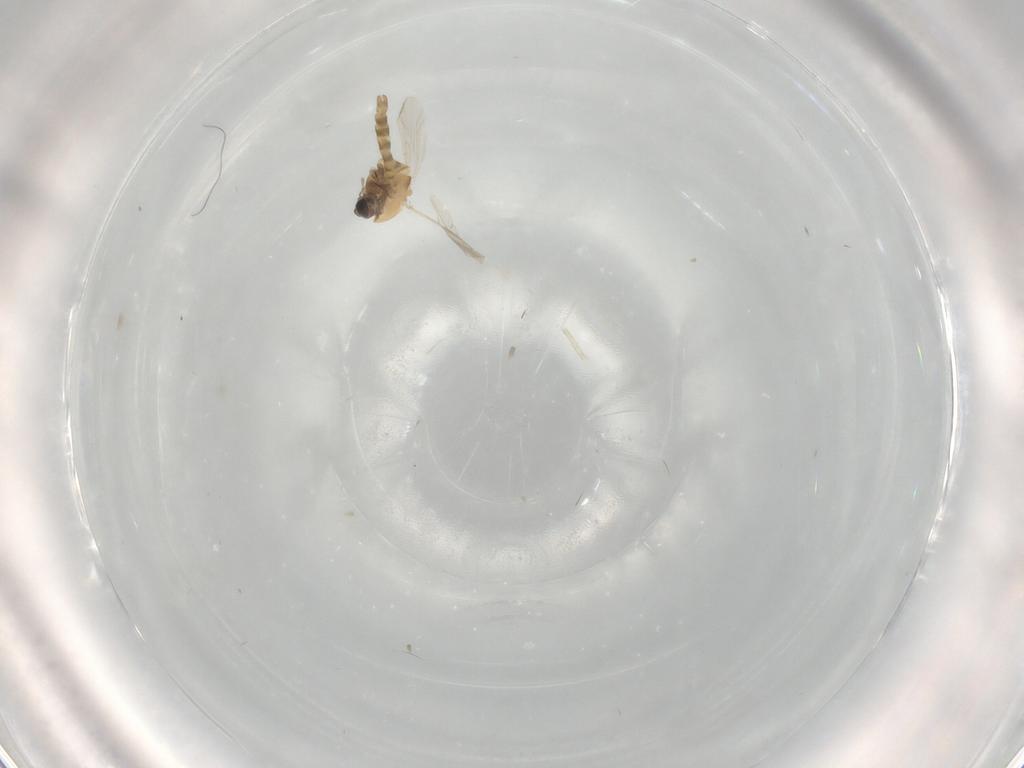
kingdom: Animalia
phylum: Arthropoda
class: Insecta
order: Diptera
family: Chironomidae
